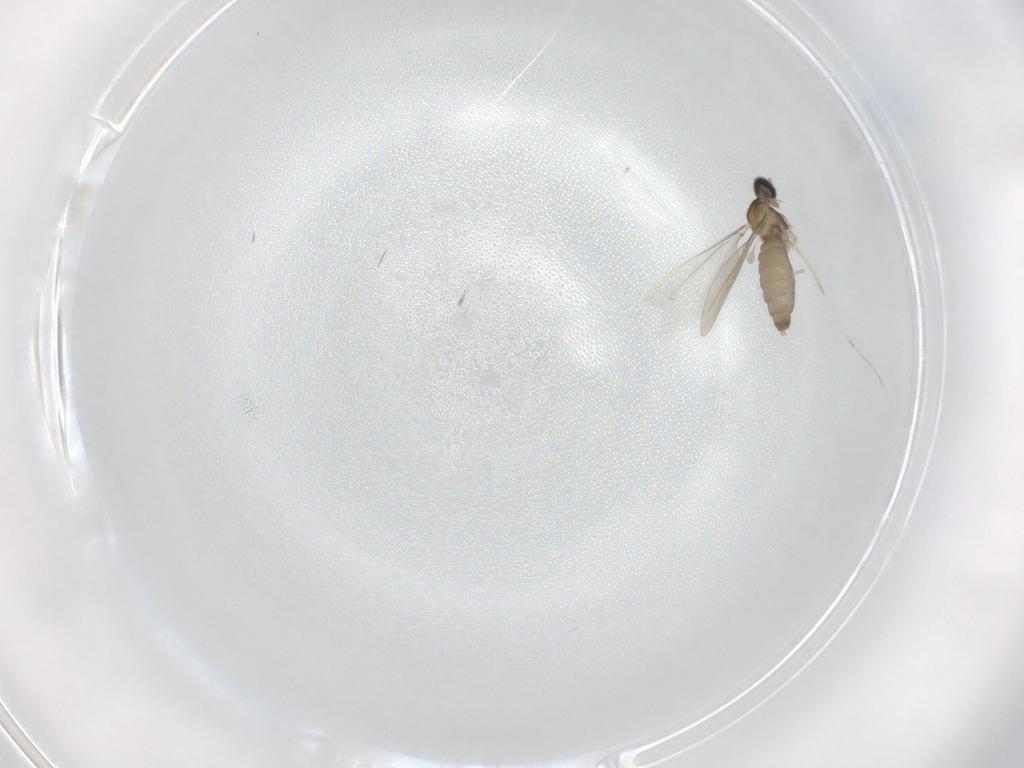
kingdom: Animalia
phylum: Arthropoda
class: Insecta
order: Diptera
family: Cecidomyiidae
